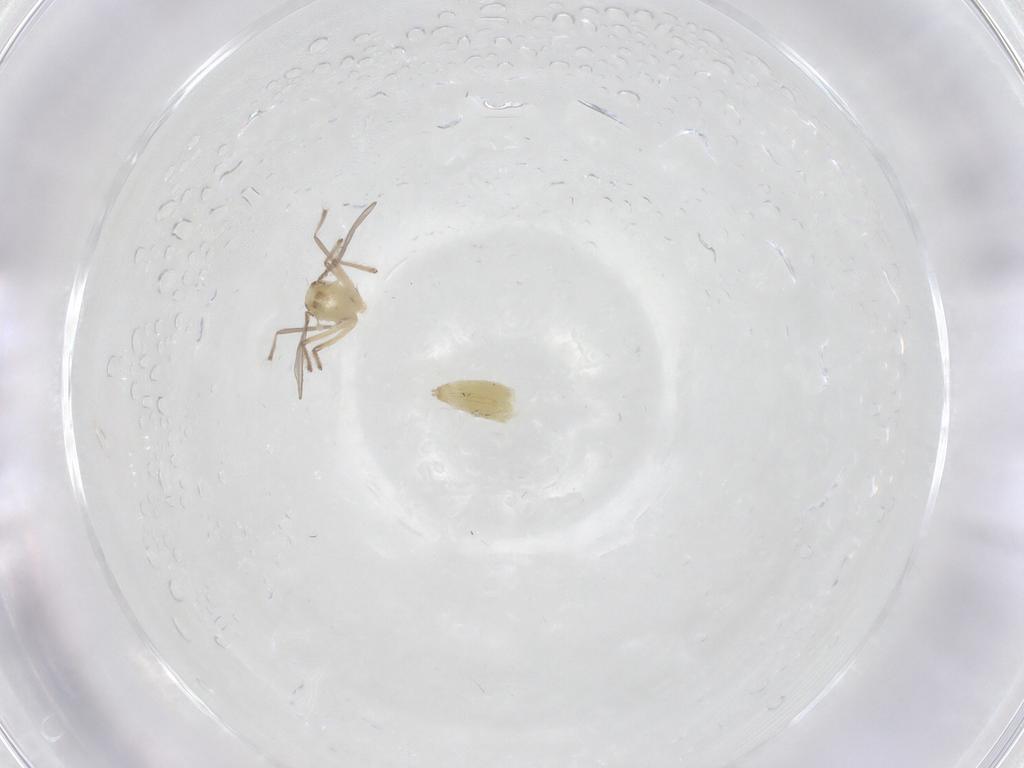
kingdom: Animalia
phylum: Arthropoda
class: Insecta
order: Diptera
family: Chironomidae
